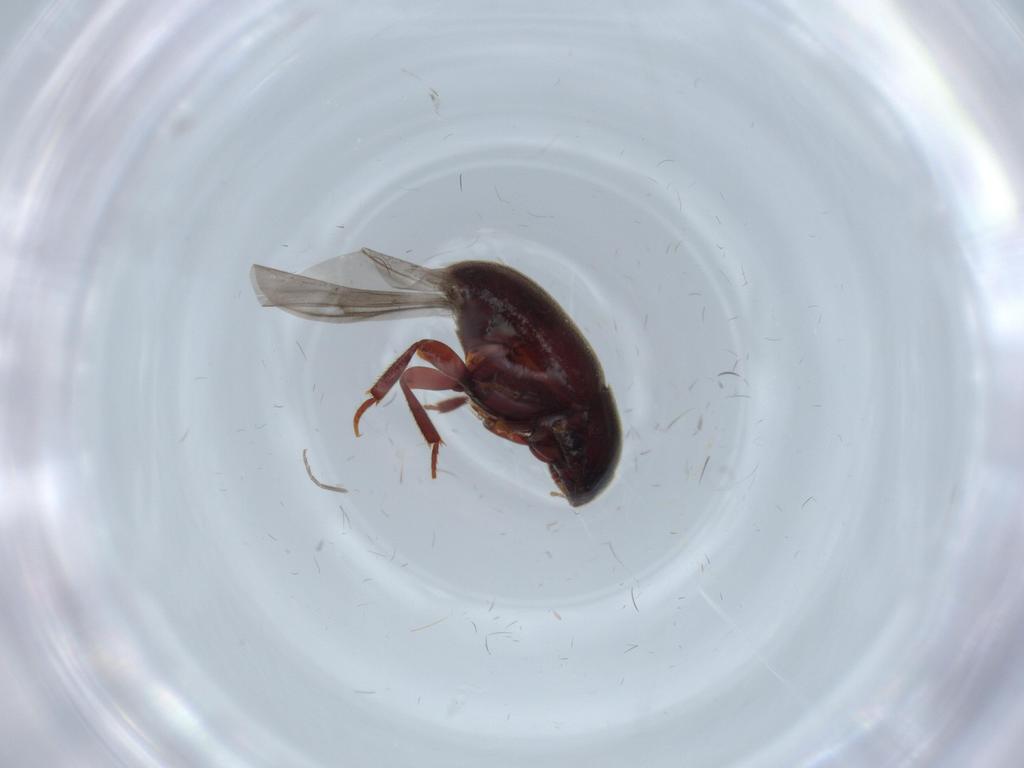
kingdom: Animalia
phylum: Arthropoda
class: Insecta
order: Coleoptera
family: Leiodidae
